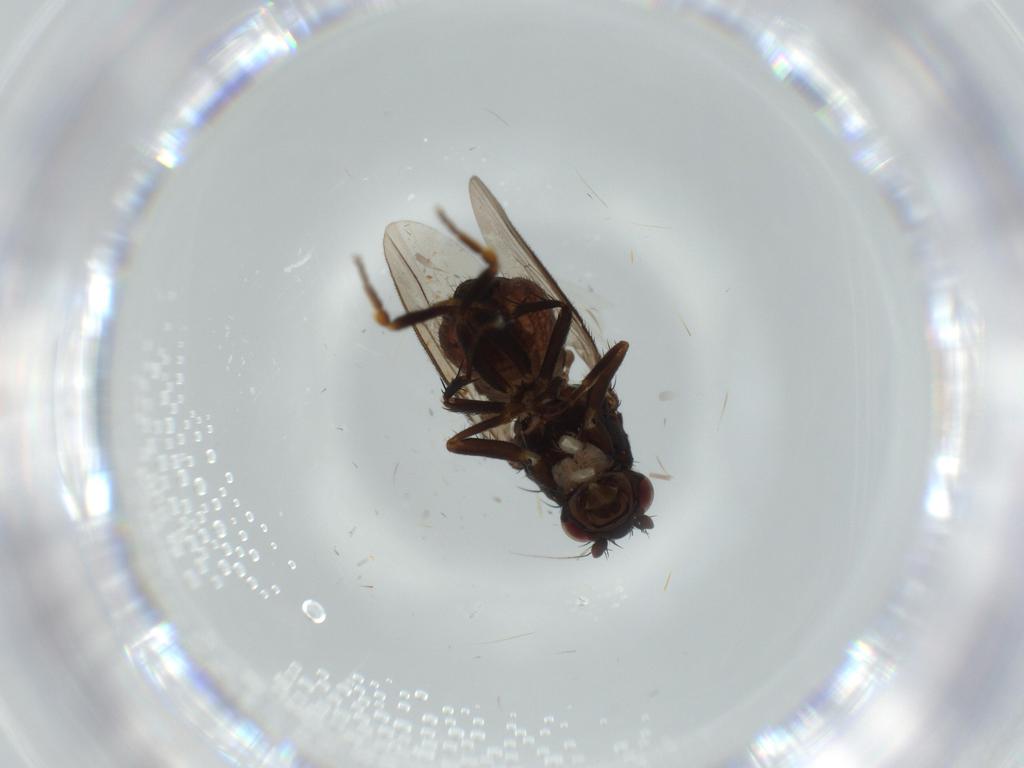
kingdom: Animalia
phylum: Arthropoda
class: Insecta
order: Diptera
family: Sphaeroceridae
